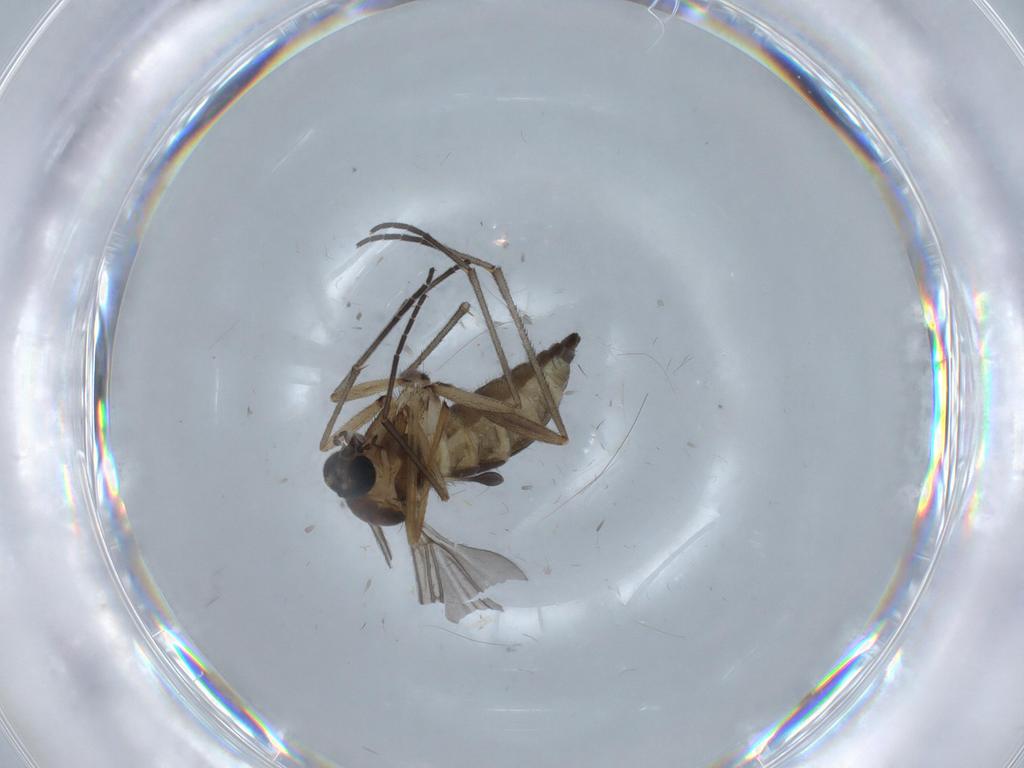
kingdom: Animalia
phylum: Arthropoda
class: Insecta
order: Diptera
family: Sciaridae
